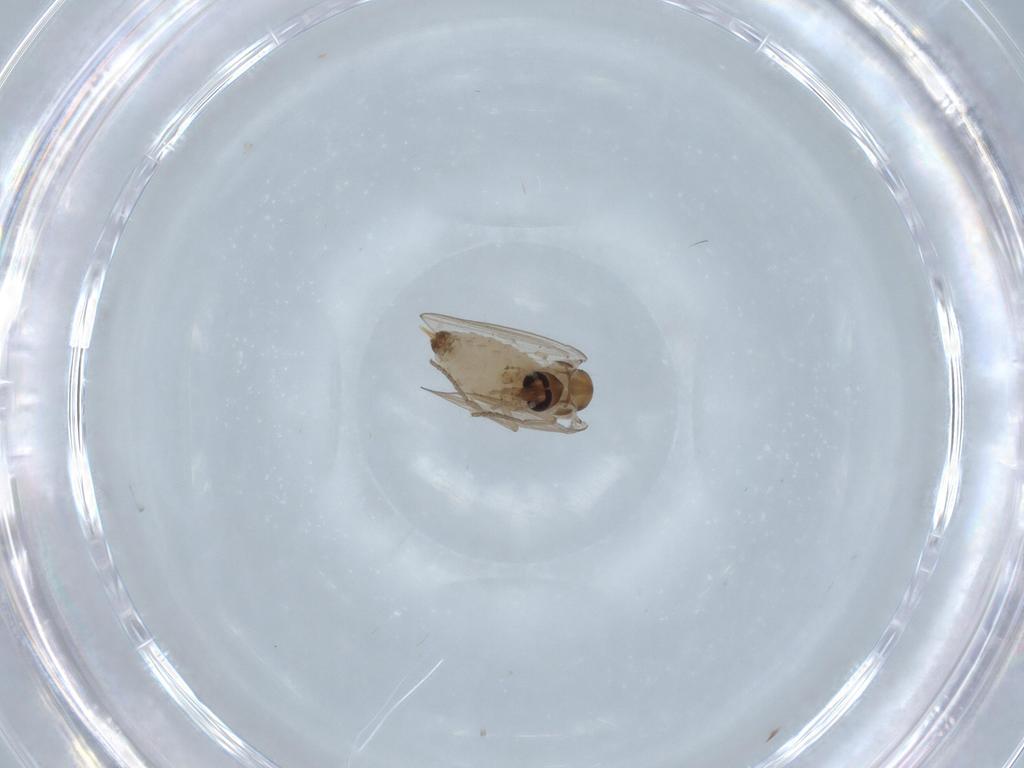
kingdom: Animalia
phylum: Arthropoda
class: Insecta
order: Diptera
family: Psychodidae
